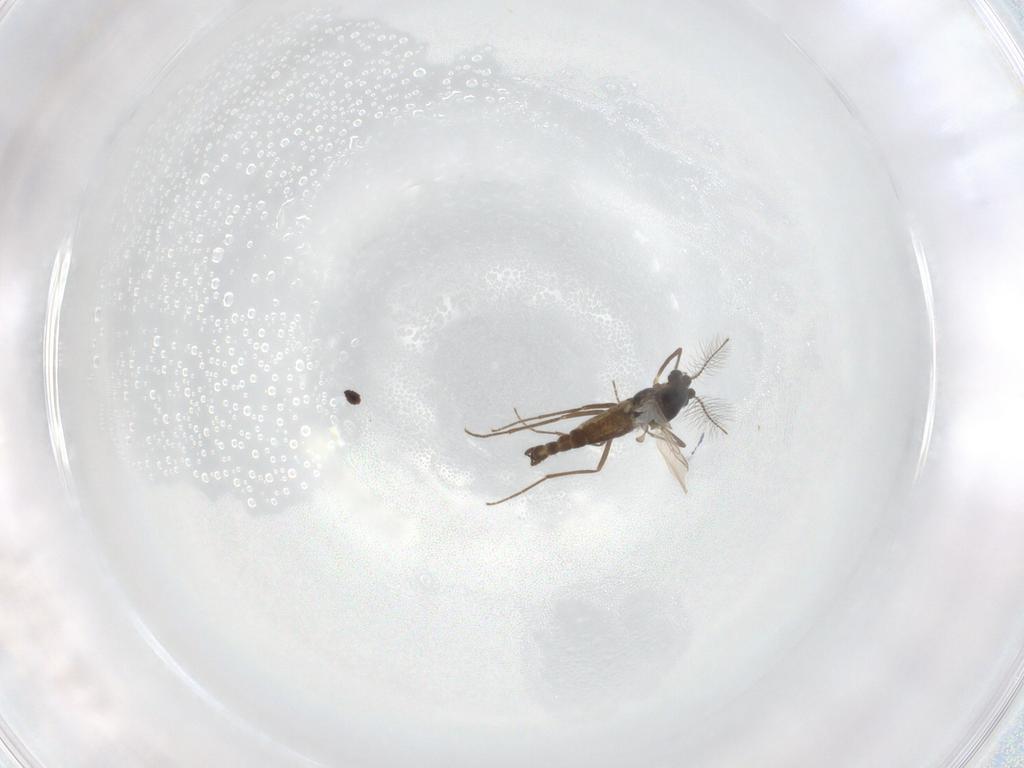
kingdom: Animalia
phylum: Arthropoda
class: Insecta
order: Diptera
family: Chironomidae
